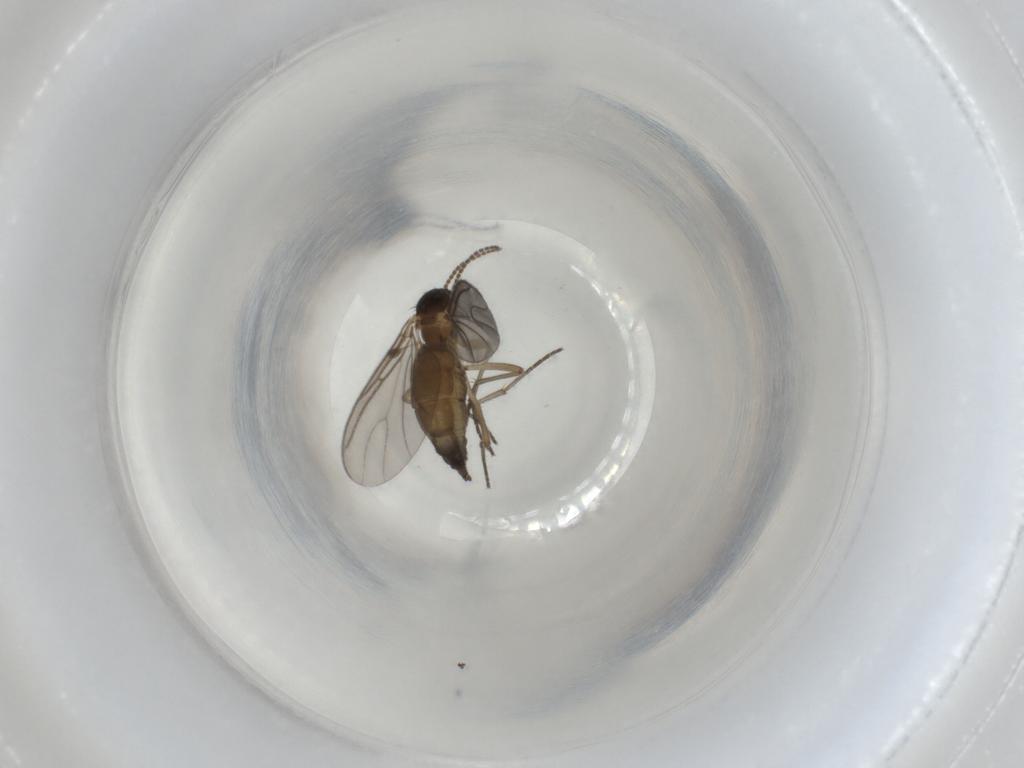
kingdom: Animalia
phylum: Arthropoda
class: Insecta
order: Diptera
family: Sciaridae
